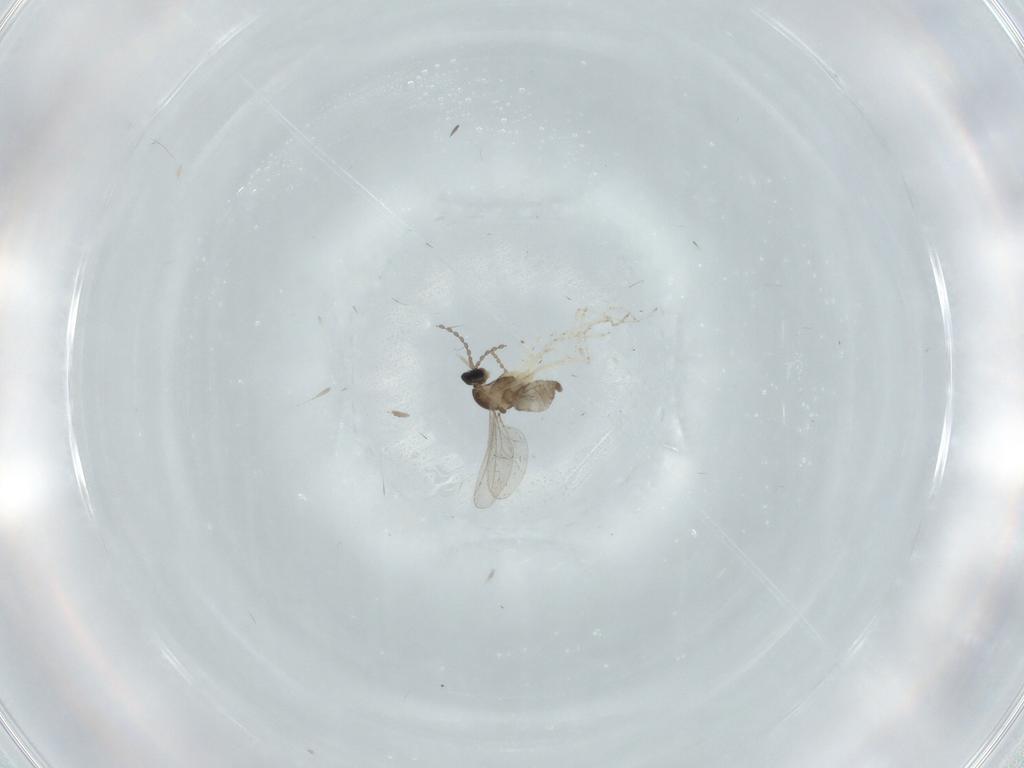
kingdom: Animalia
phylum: Arthropoda
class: Insecta
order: Diptera
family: Cecidomyiidae
